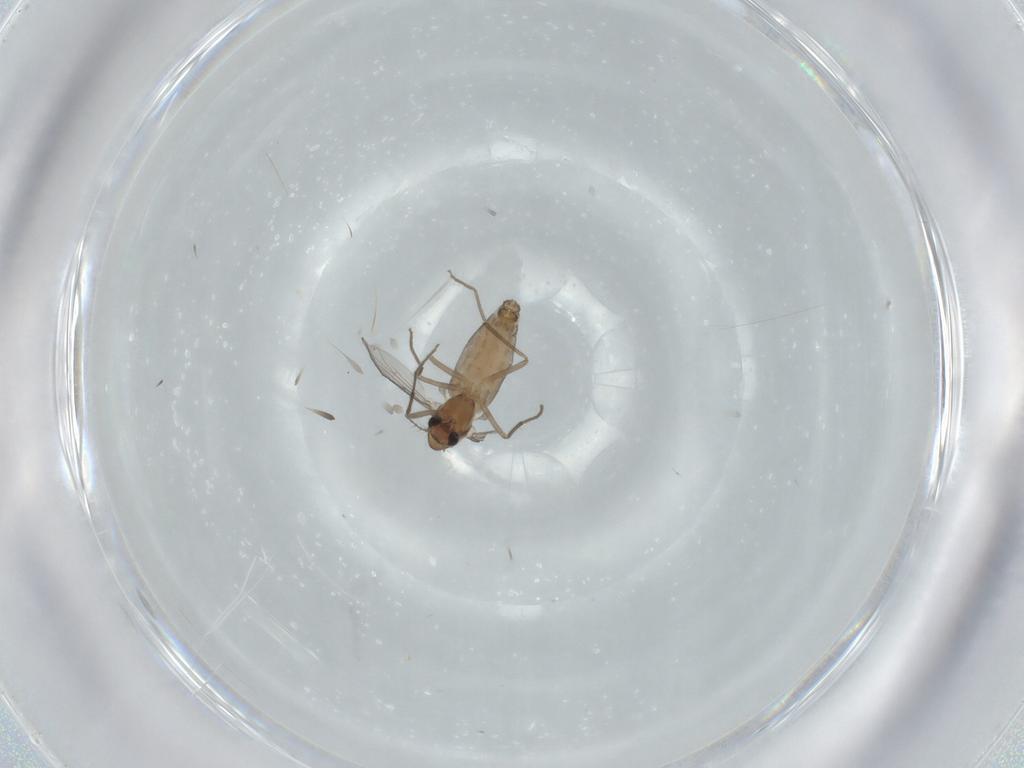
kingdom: Animalia
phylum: Arthropoda
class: Insecta
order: Diptera
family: Chironomidae
